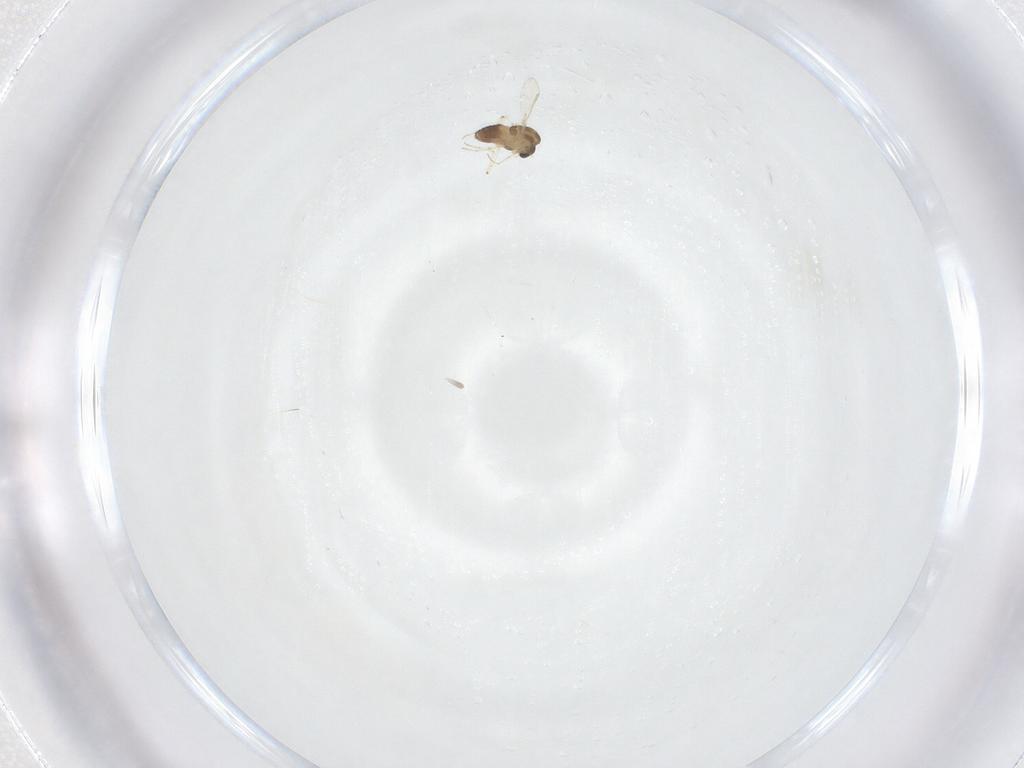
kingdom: Animalia
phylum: Arthropoda
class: Insecta
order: Diptera
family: Chironomidae
